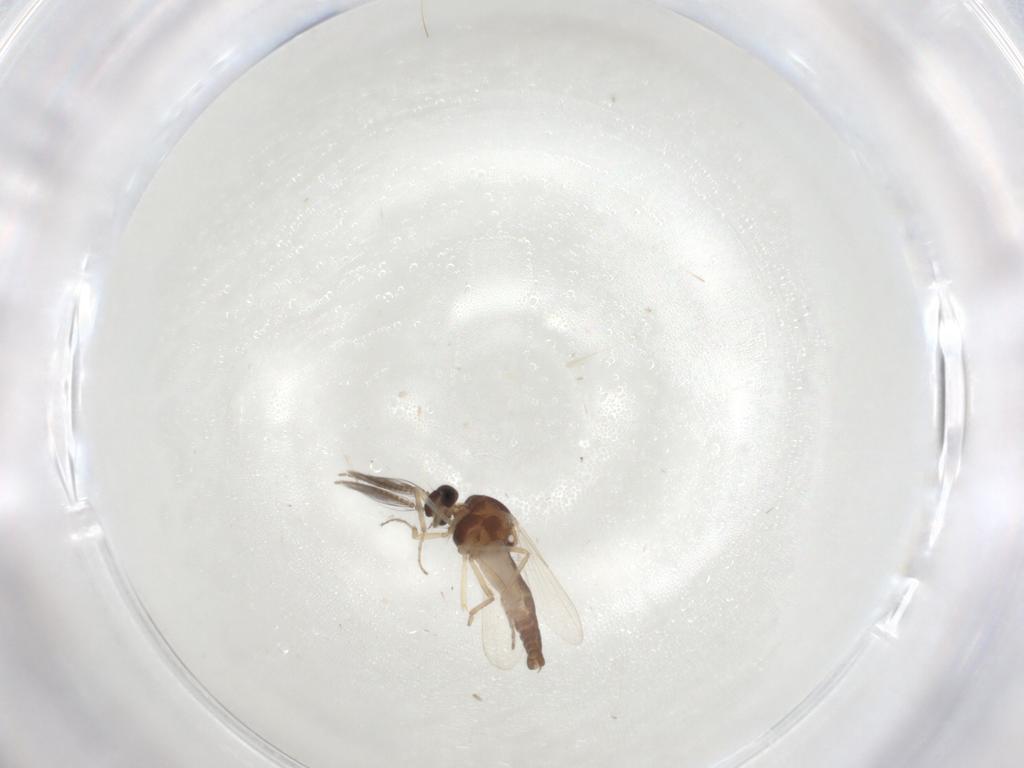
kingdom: Animalia
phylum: Arthropoda
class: Insecta
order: Diptera
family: Ceratopogonidae
